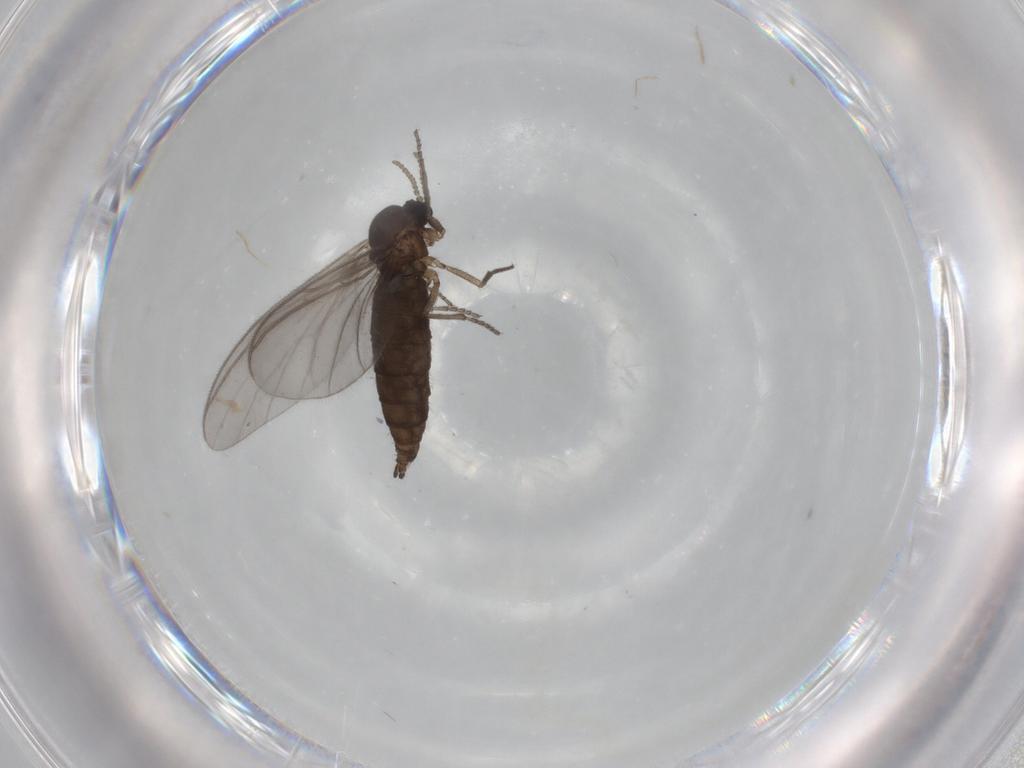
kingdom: Animalia
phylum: Arthropoda
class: Insecta
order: Diptera
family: Sciaridae
